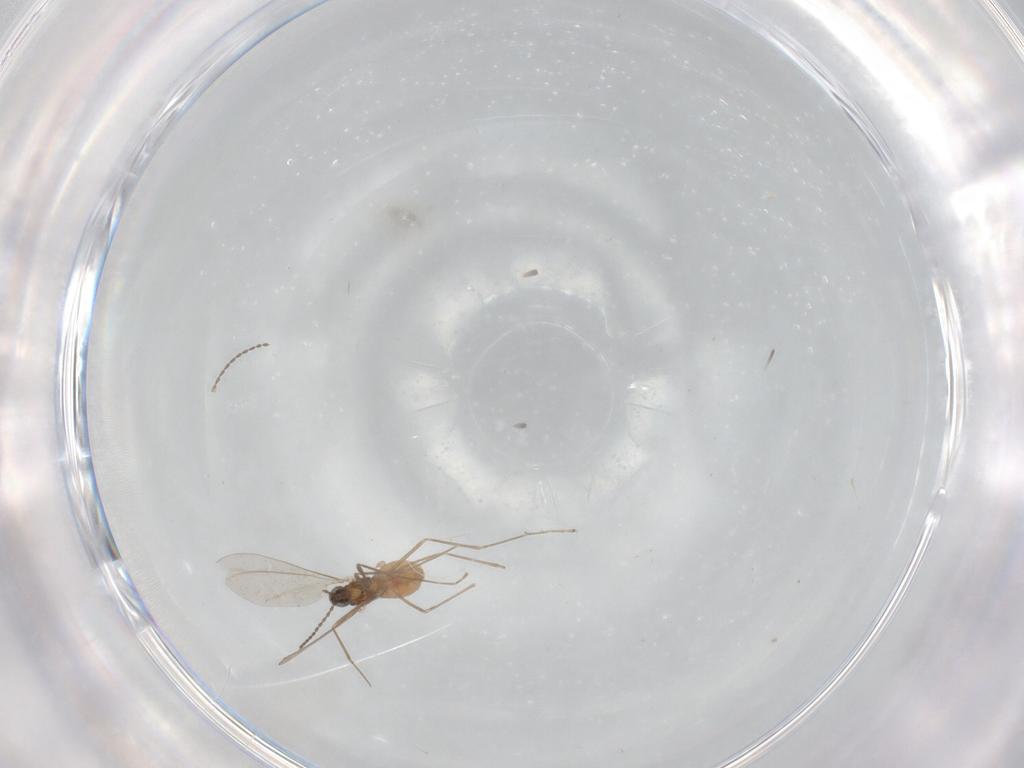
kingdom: Animalia
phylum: Arthropoda
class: Insecta
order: Diptera
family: Cecidomyiidae
